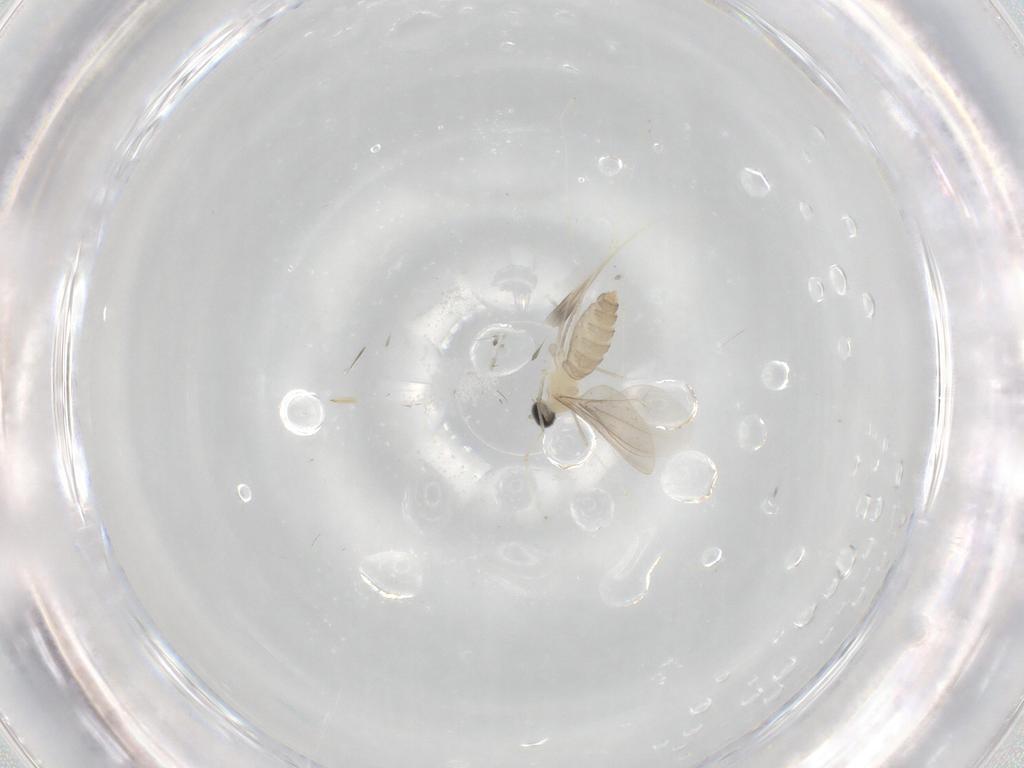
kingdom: Animalia
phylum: Arthropoda
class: Insecta
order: Diptera
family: Cecidomyiidae
